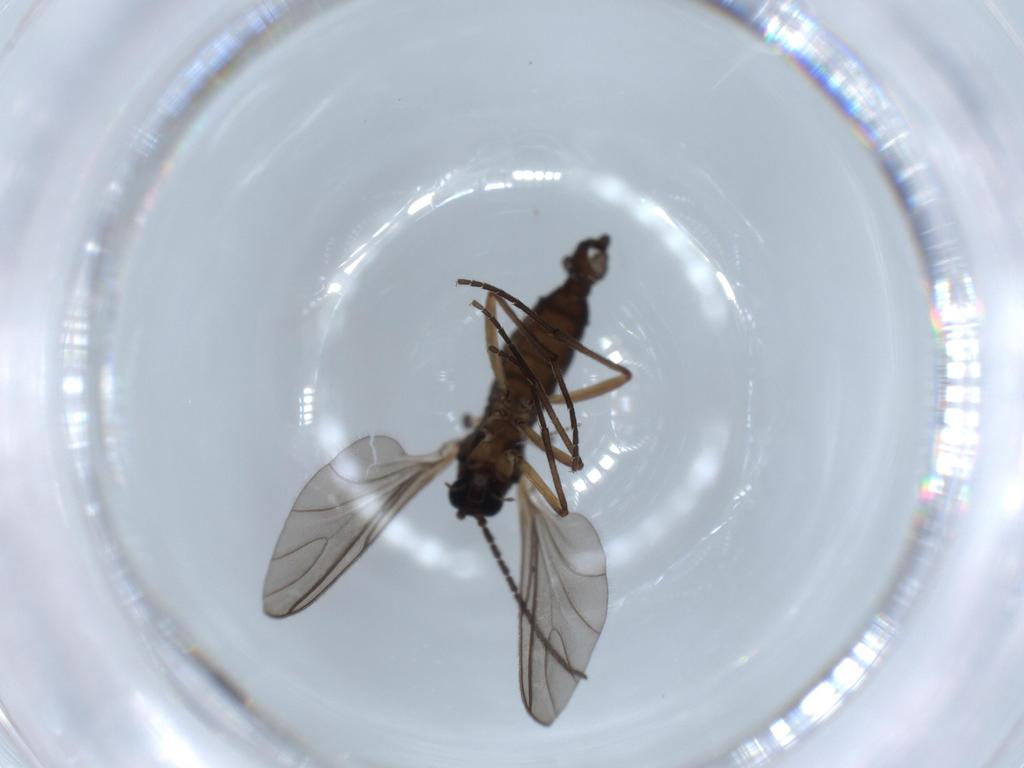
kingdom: Animalia
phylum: Arthropoda
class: Insecta
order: Diptera
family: Sciaridae
